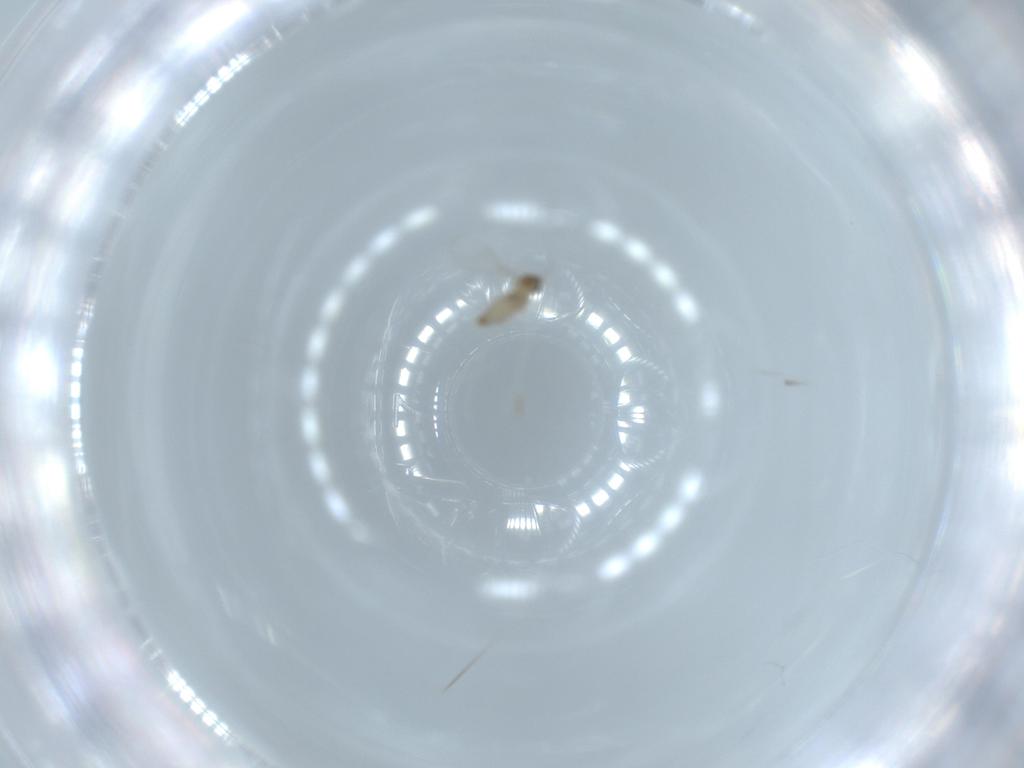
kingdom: Animalia
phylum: Arthropoda
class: Insecta
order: Diptera
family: Cecidomyiidae
